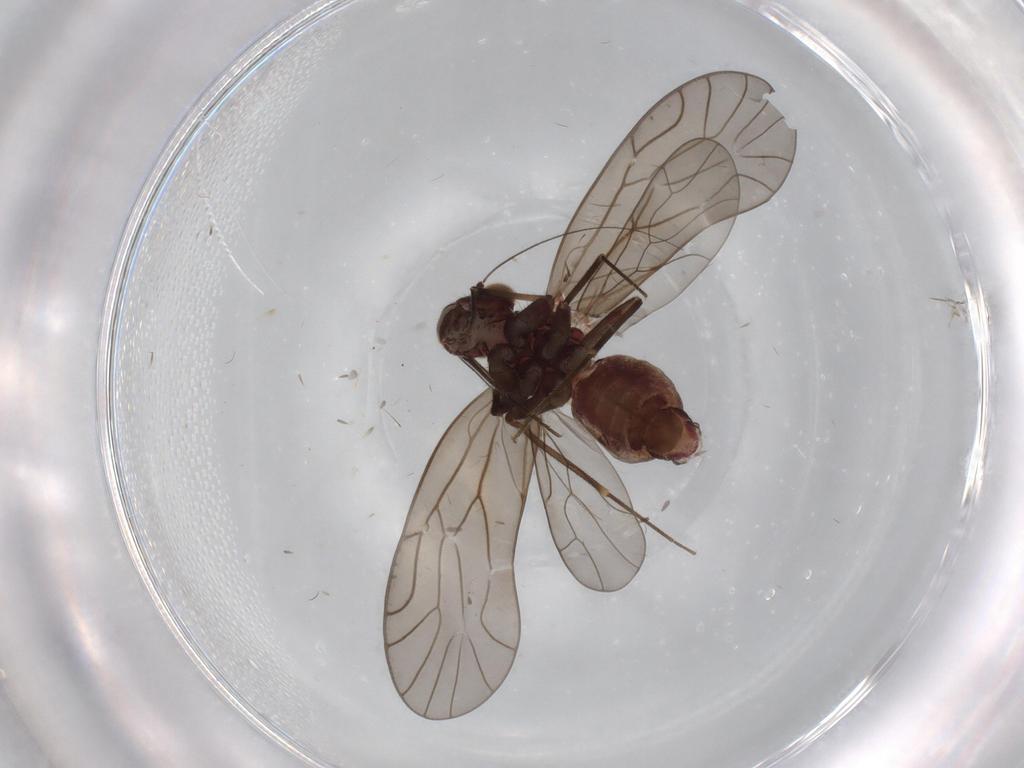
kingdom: Animalia
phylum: Arthropoda
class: Insecta
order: Psocodea
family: Philotarsidae
